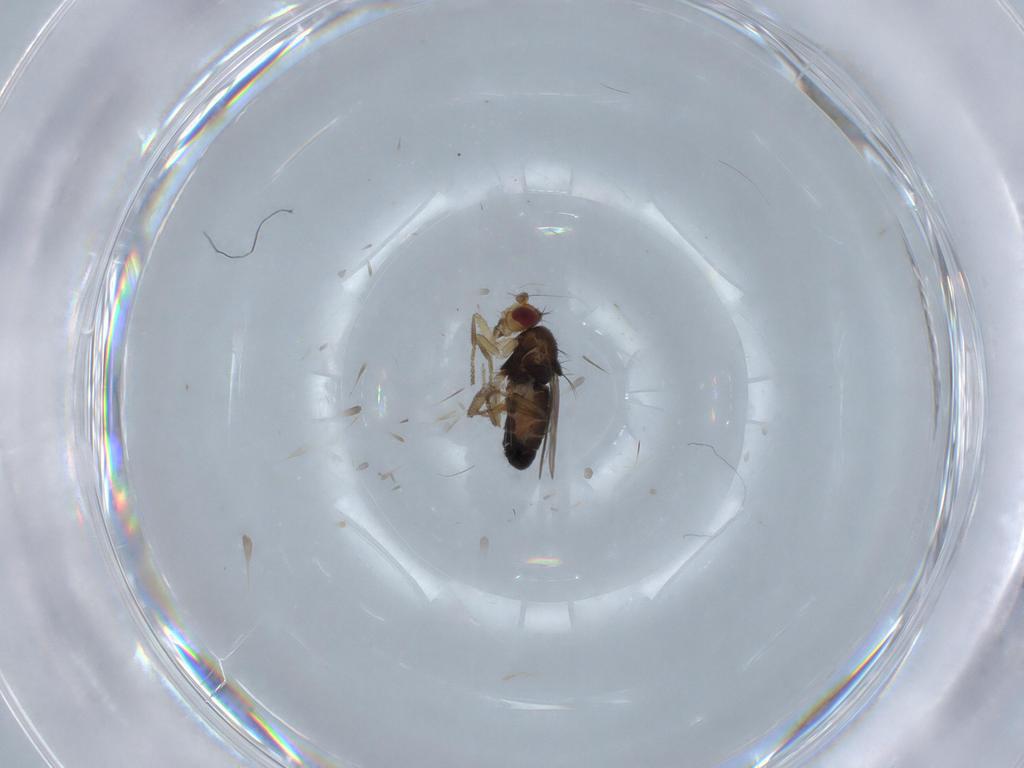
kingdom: Animalia
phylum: Arthropoda
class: Insecta
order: Diptera
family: Sphaeroceridae
